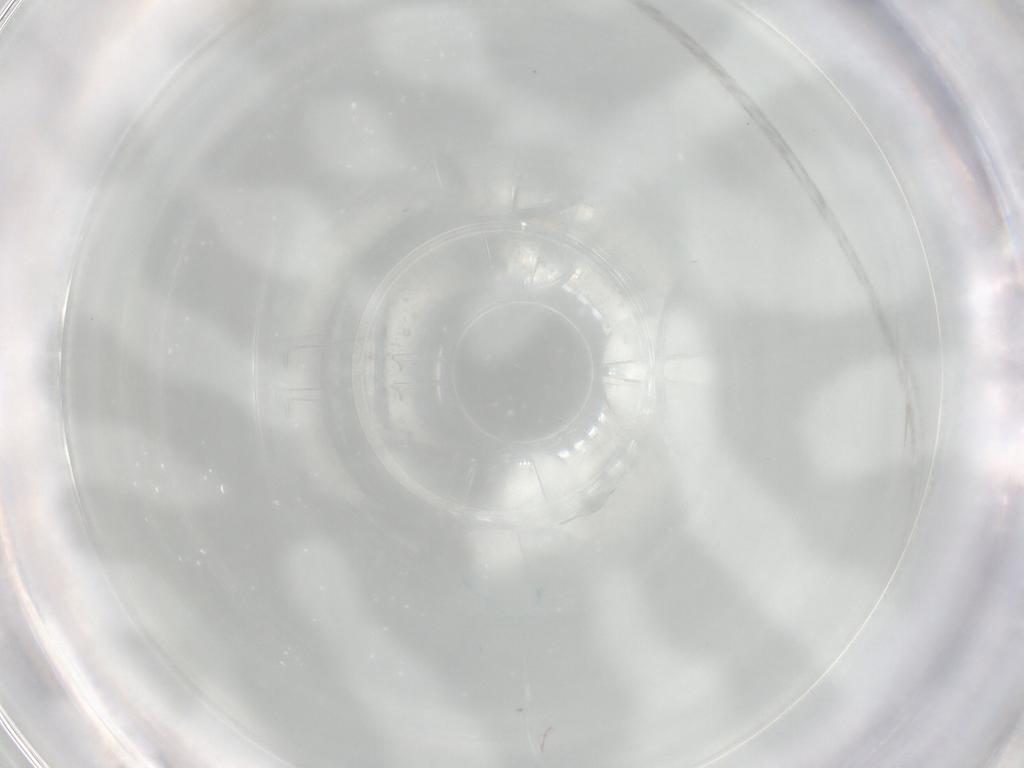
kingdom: Animalia
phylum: Arthropoda
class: Insecta
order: Diptera
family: Cecidomyiidae
